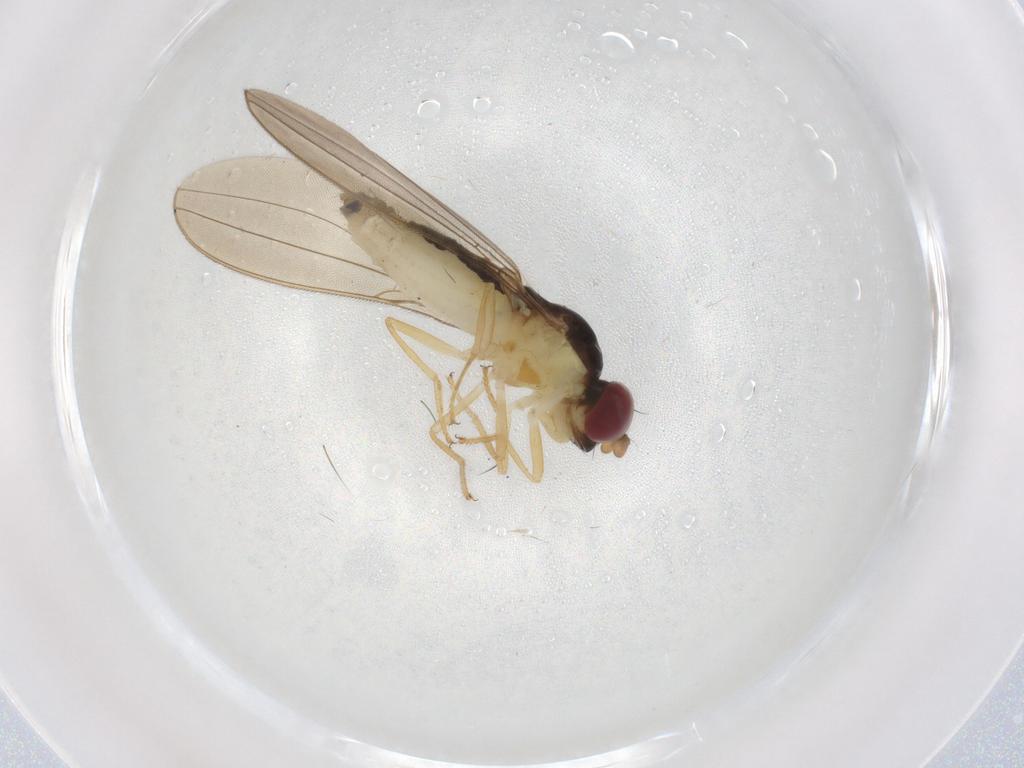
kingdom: Animalia
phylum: Arthropoda
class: Insecta
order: Diptera
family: Asteiidae
